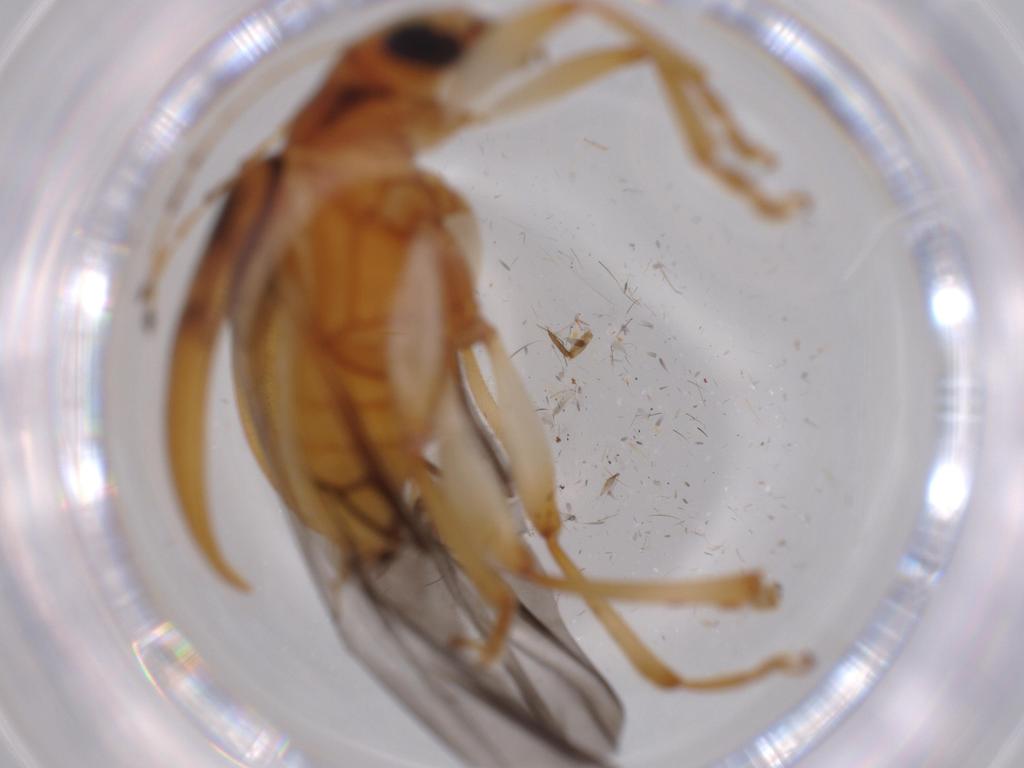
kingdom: Animalia
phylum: Arthropoda
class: Insecta
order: Coleoptera
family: Chrysomelidae
